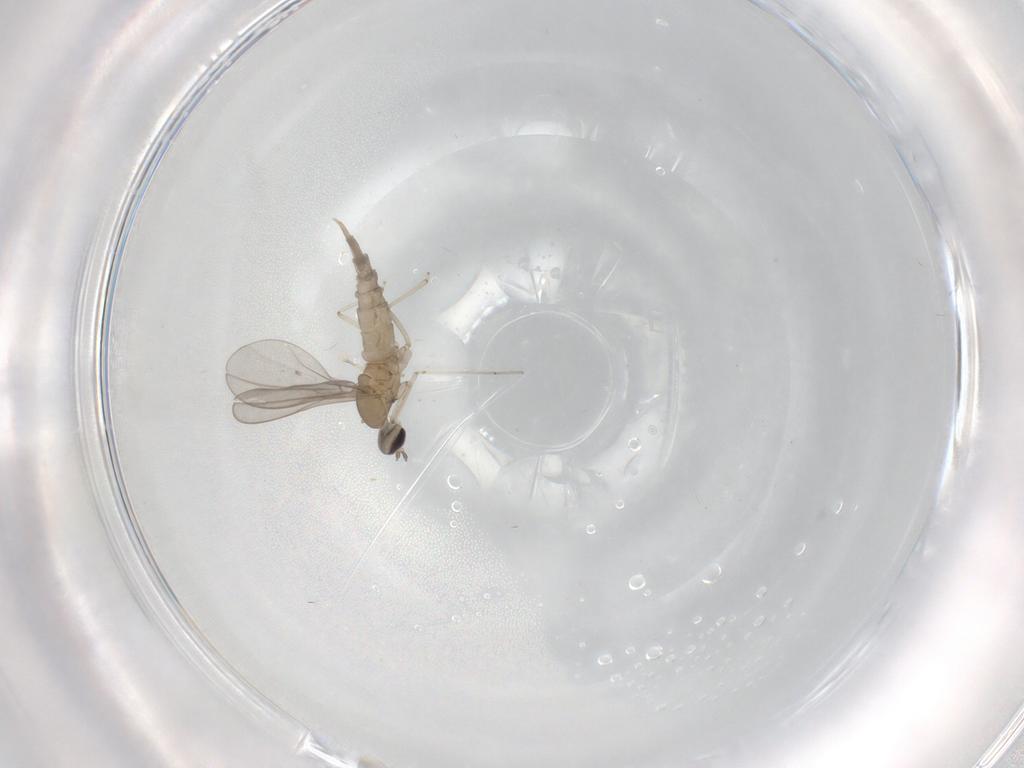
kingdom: Animalia
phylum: Arthropoda
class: Insecta
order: Diptera
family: Cecidomyiidae
